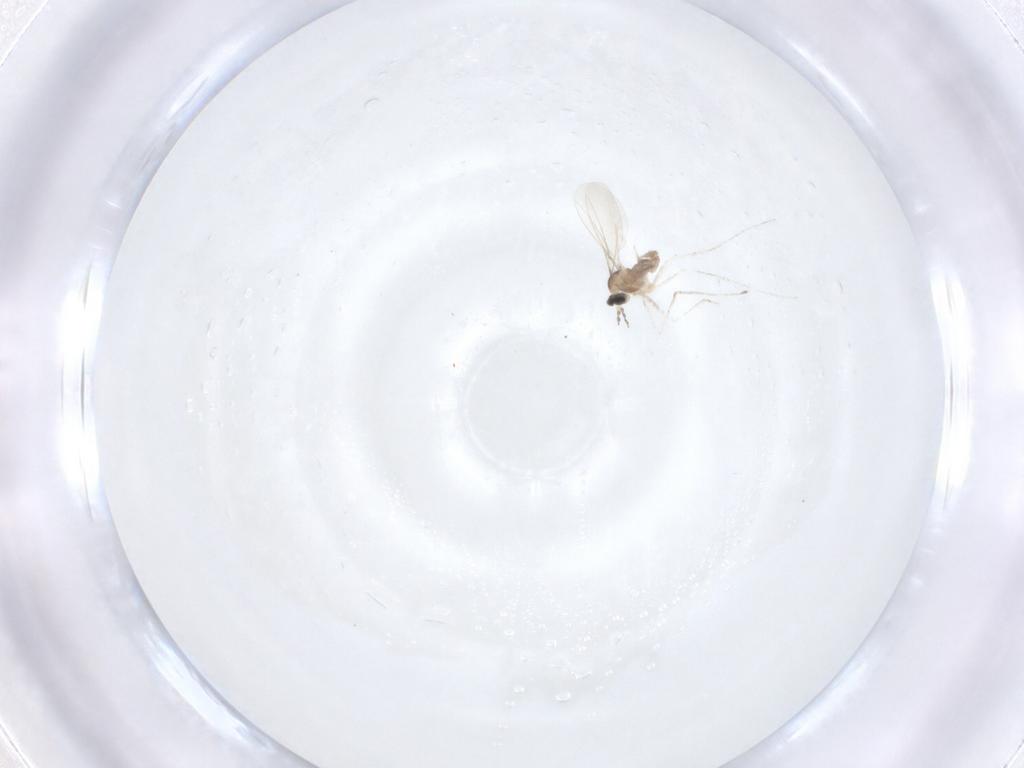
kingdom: Animalia
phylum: Arthropoda
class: Insecta
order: Diptera
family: Cecidomyiidae
